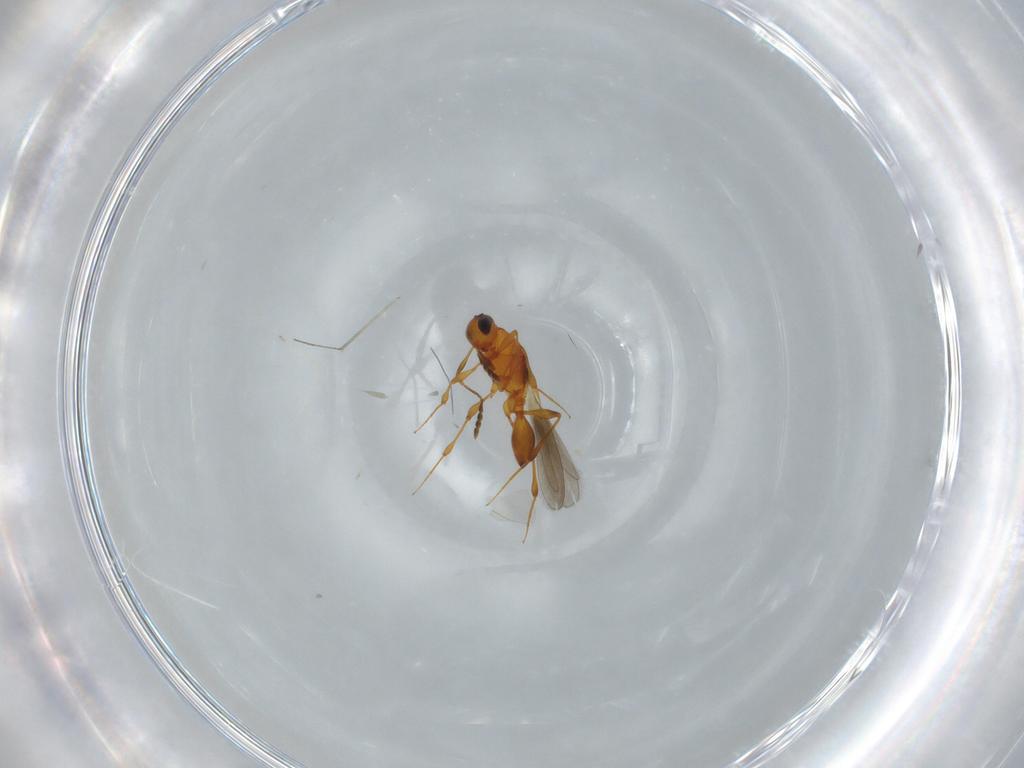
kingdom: Animalia
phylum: Arthropoda
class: Insecta
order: Hymenoptera
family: Platygastridae
